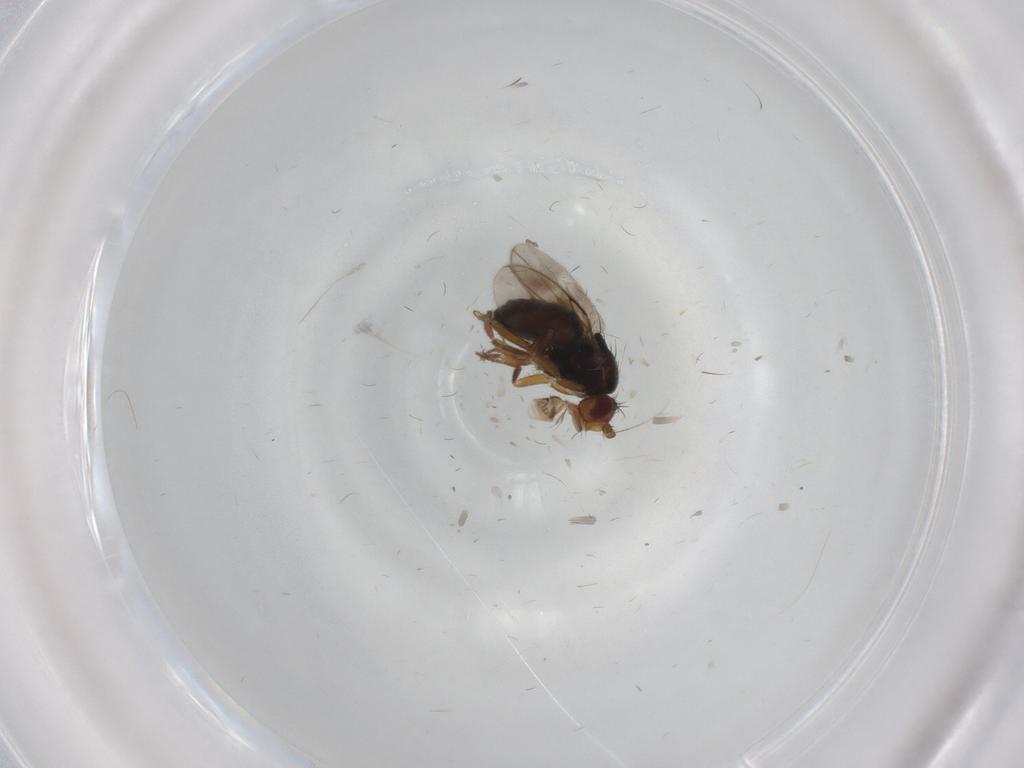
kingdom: Animalia
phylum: Arthropoda
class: Insecta
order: Diptera
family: Sphaeroceridae
